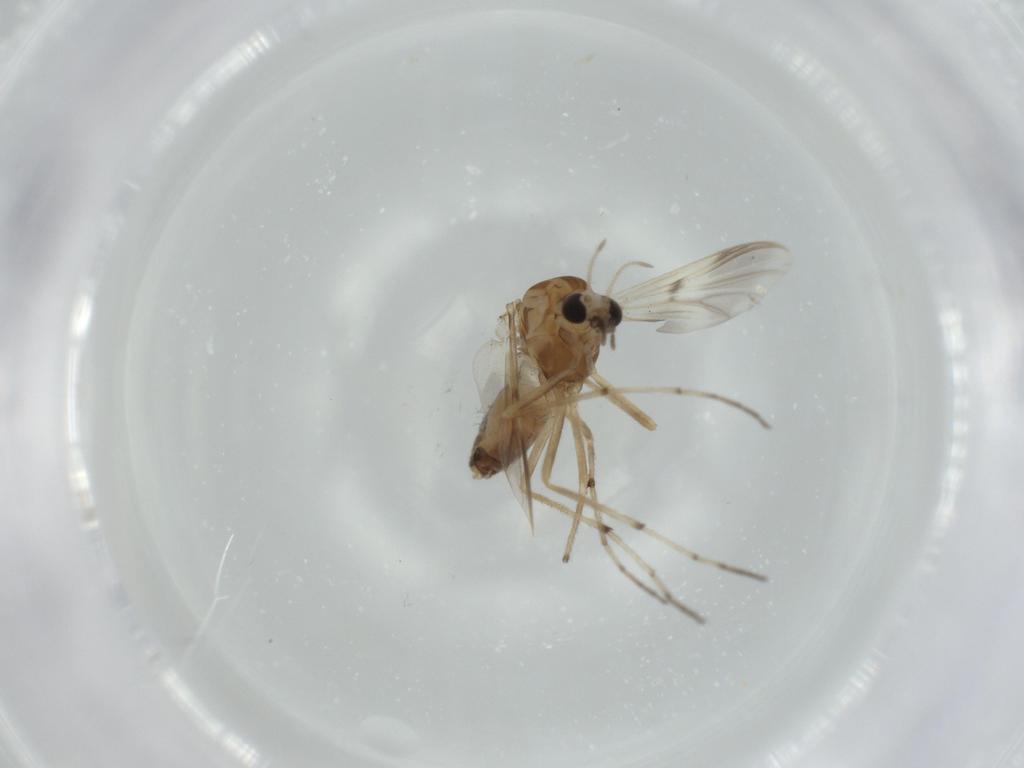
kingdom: Animalia
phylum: Arthropoda
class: Insecta
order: Diptera
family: Chironomidae
